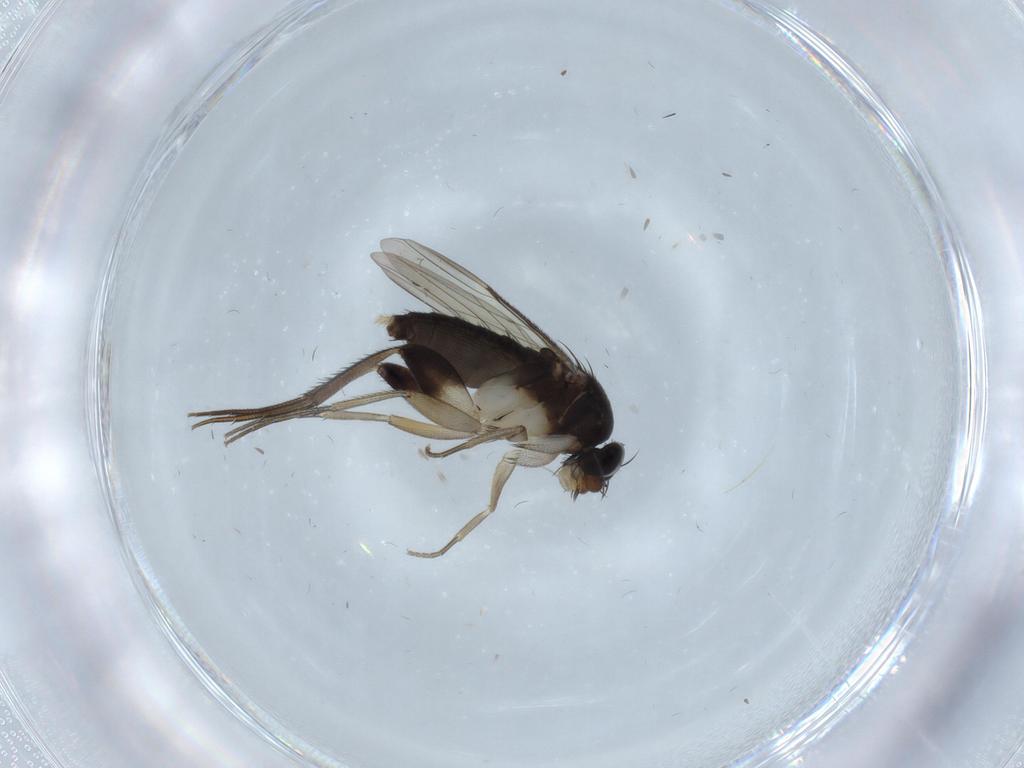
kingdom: Animalia
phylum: Arthropoda
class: Insecta
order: Diptera
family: Phoridae
